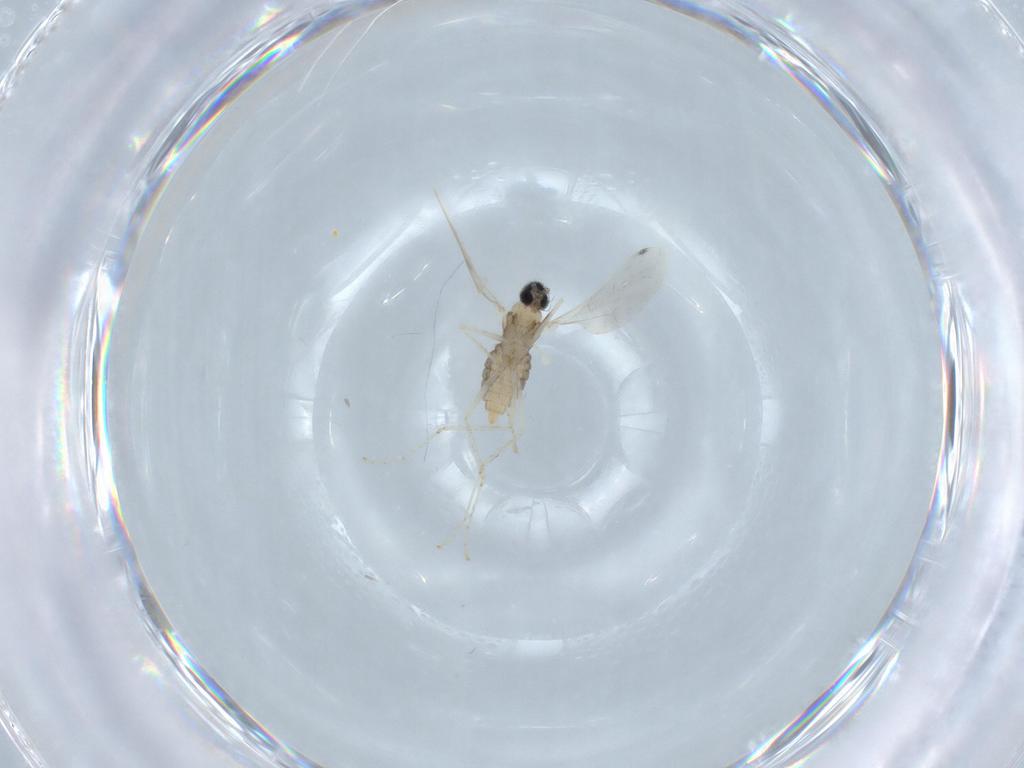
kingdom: Animalia
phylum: Arthropoda
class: Insecta
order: Diptera
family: Cecidomyiidae
